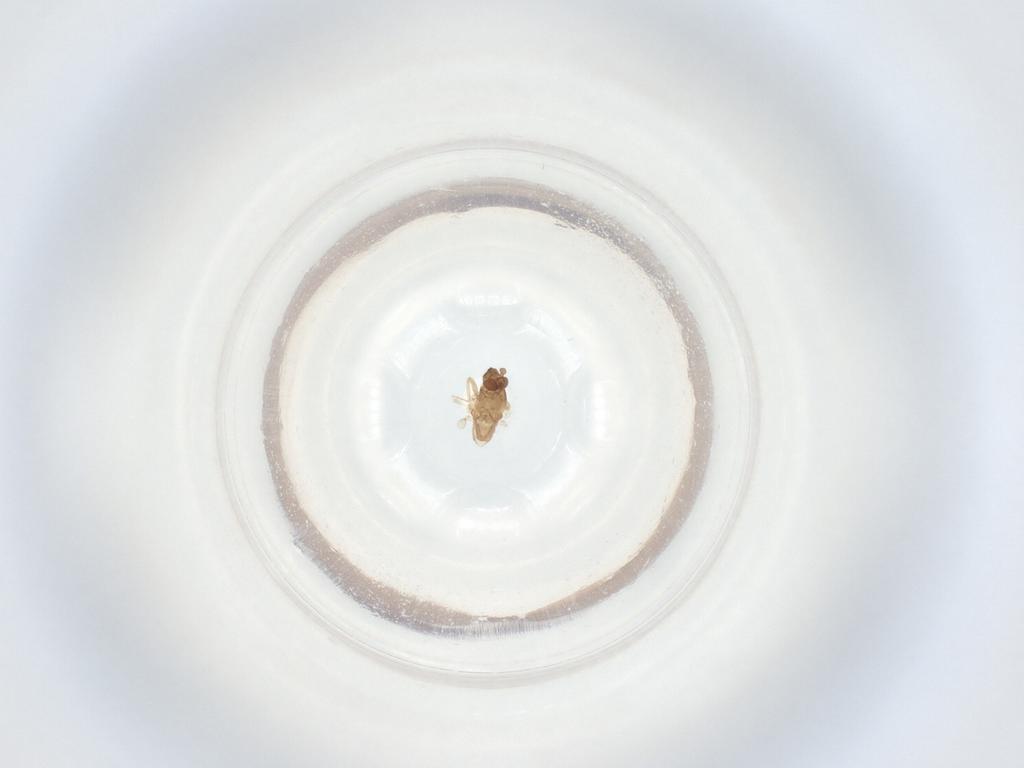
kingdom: Animalia
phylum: Arthropoda
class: Insecta
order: Diptera
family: Cecidomyiidae
